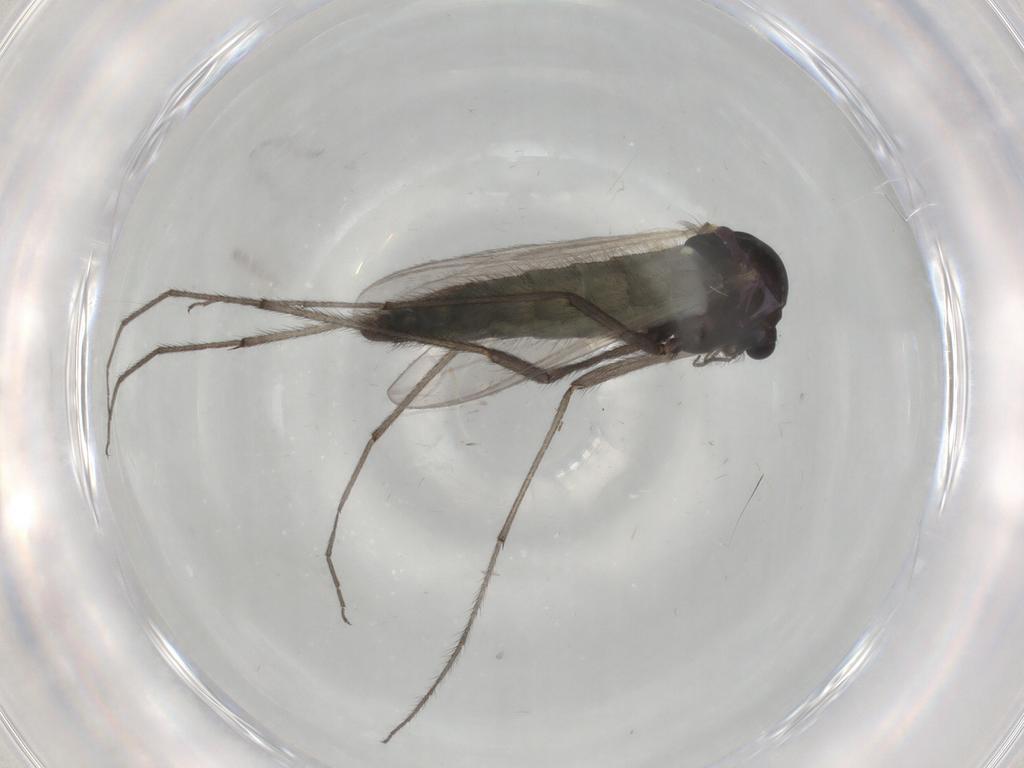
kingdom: Animalia
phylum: Arthropoda
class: Insecta
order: Diptera
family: Chironomidae
